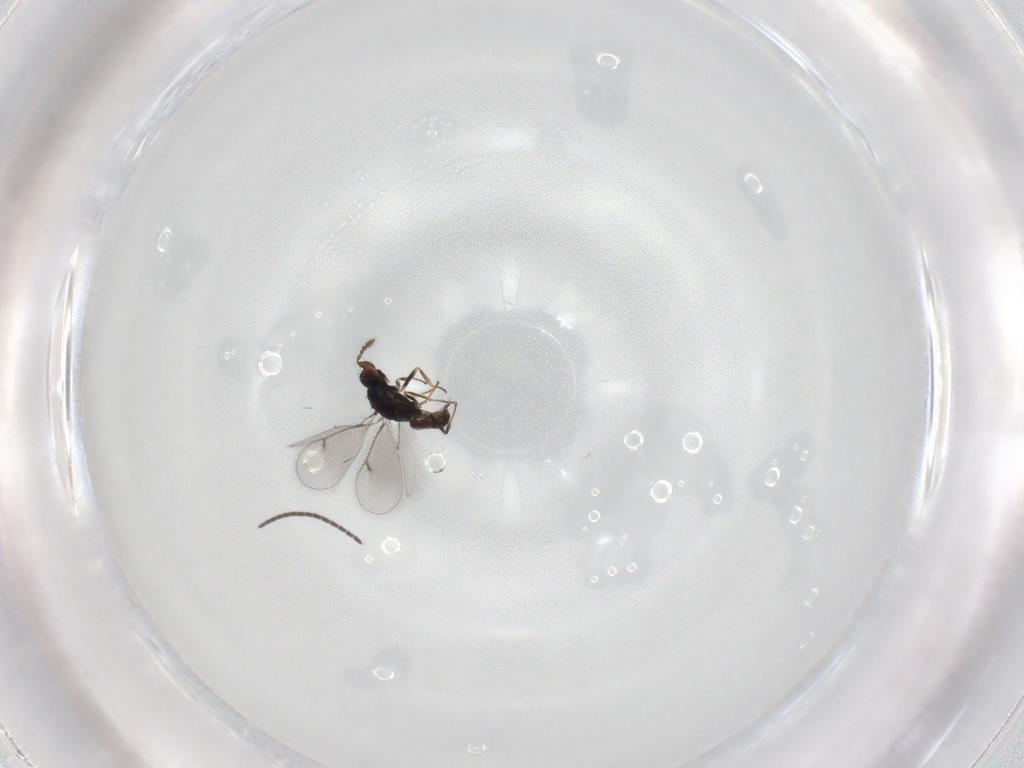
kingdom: Animalia
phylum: Arthropoda
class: Insecta
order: Hymenoptera
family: Eulophidae
